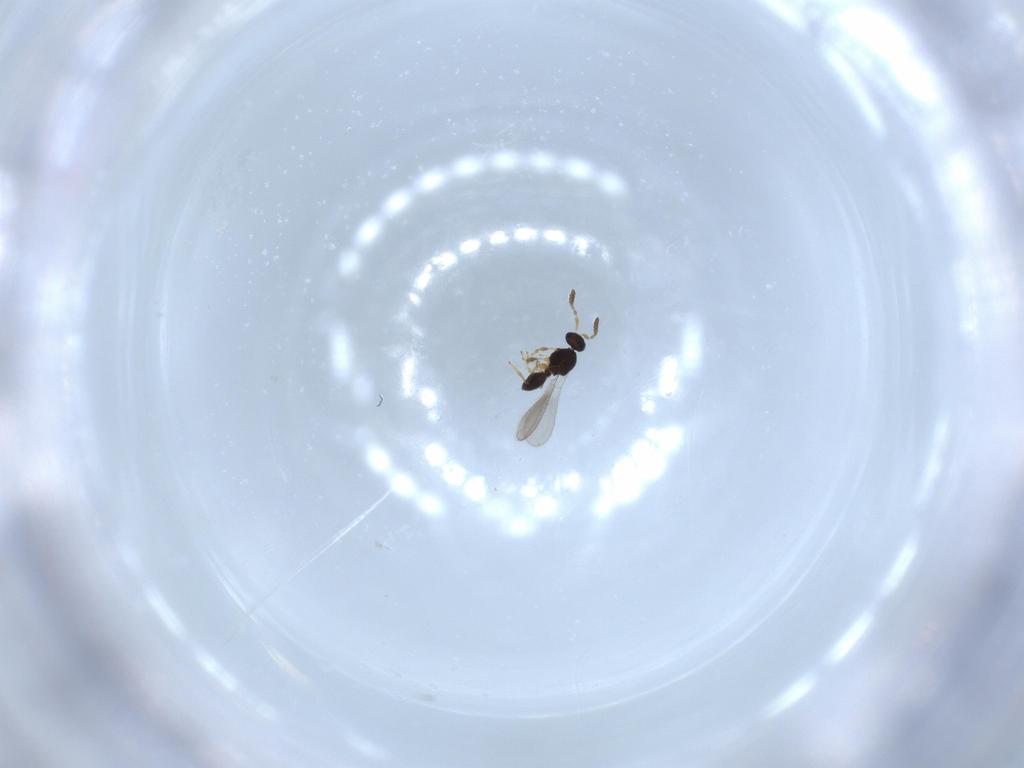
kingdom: Animalia
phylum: Arthropoda
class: Insecta
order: Hymenoptera
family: Platygastridae
